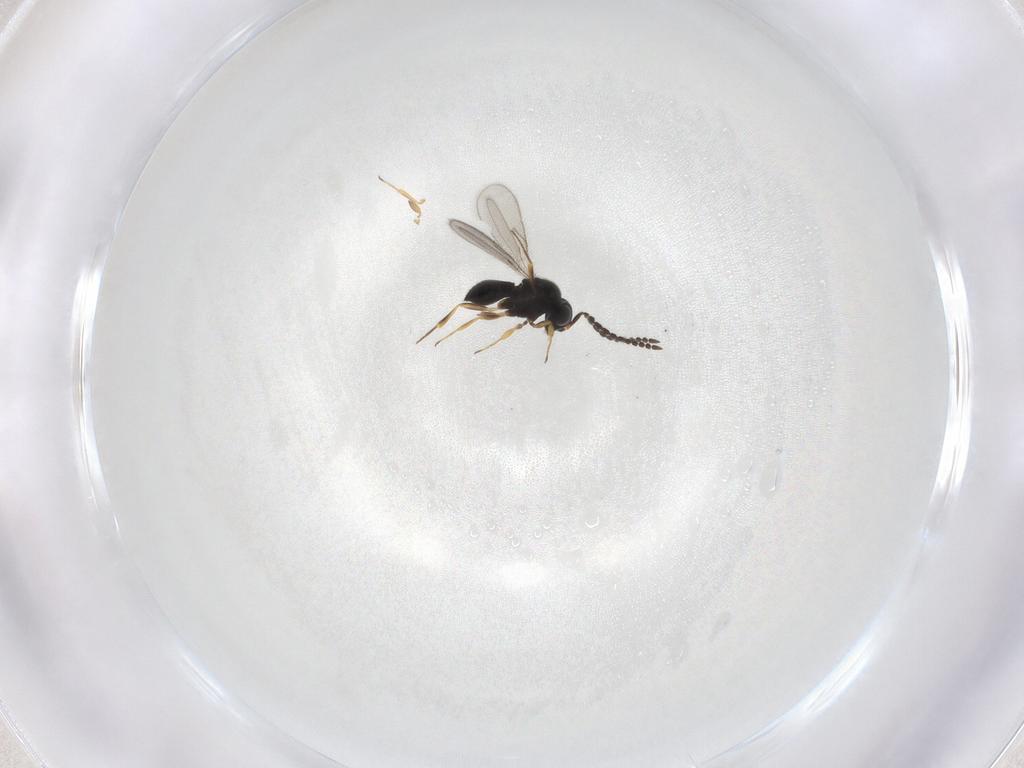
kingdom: Animalia
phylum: Arthropoda
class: Insecta
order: Hymenoptera
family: Scelionidae
